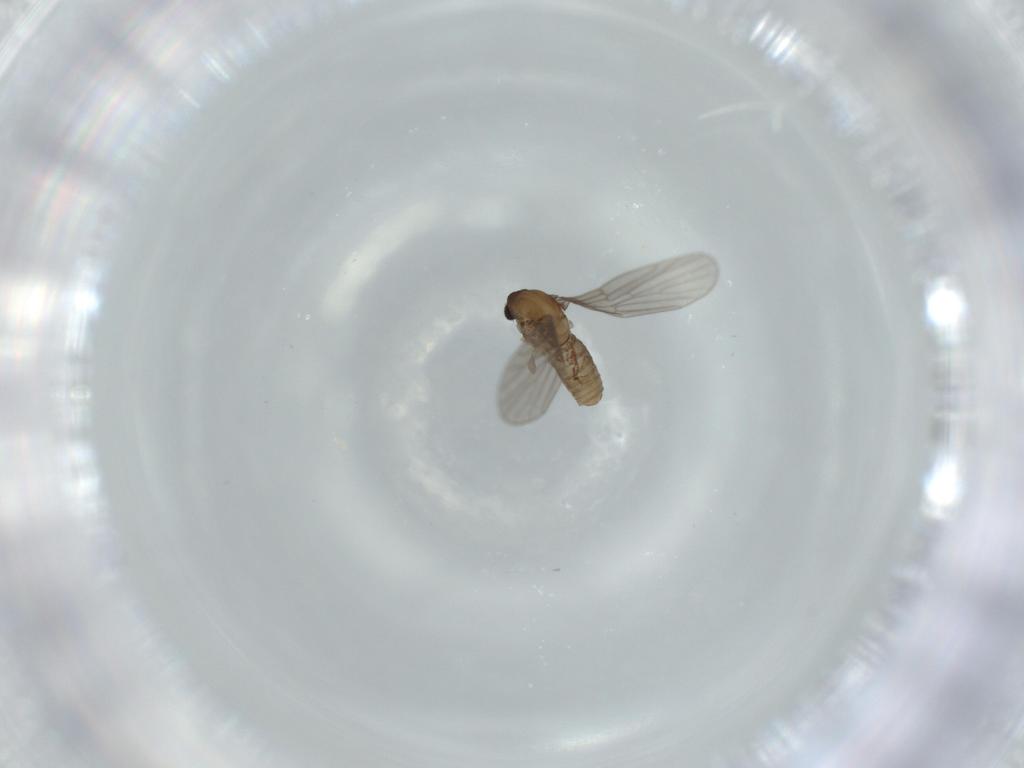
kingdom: Animalia
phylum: Arthropoda
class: Insecta
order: Diptera
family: Psychodidae
